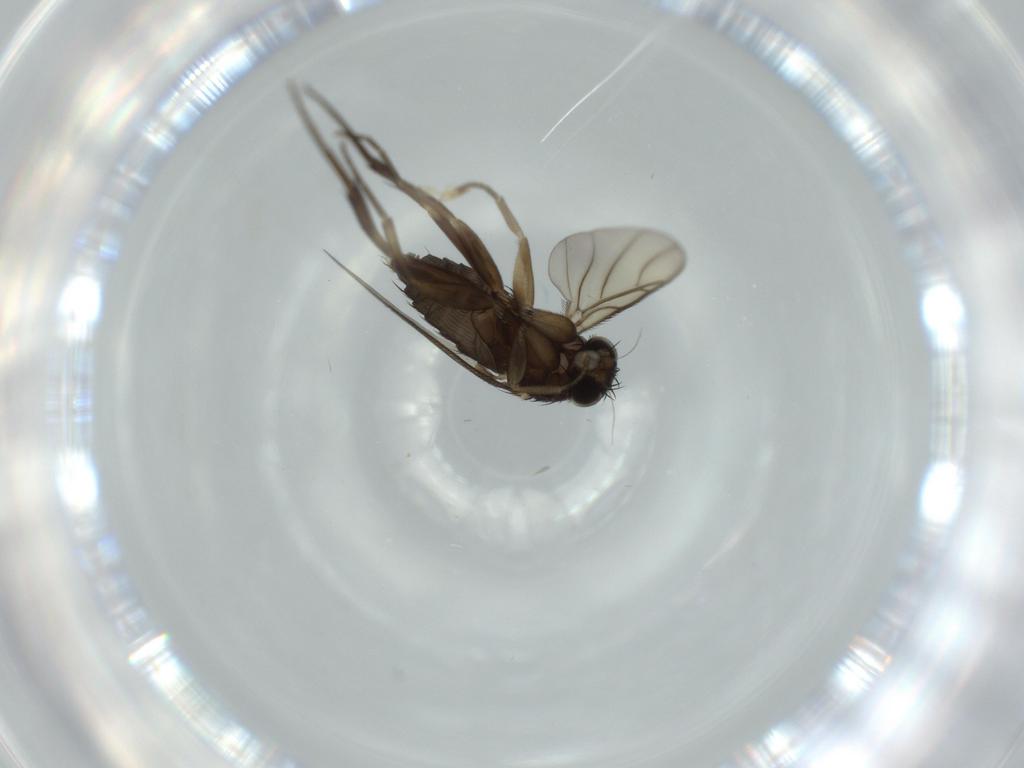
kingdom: Animalia
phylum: Arthropoda
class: Insecta
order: Diptera
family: Phoridae
